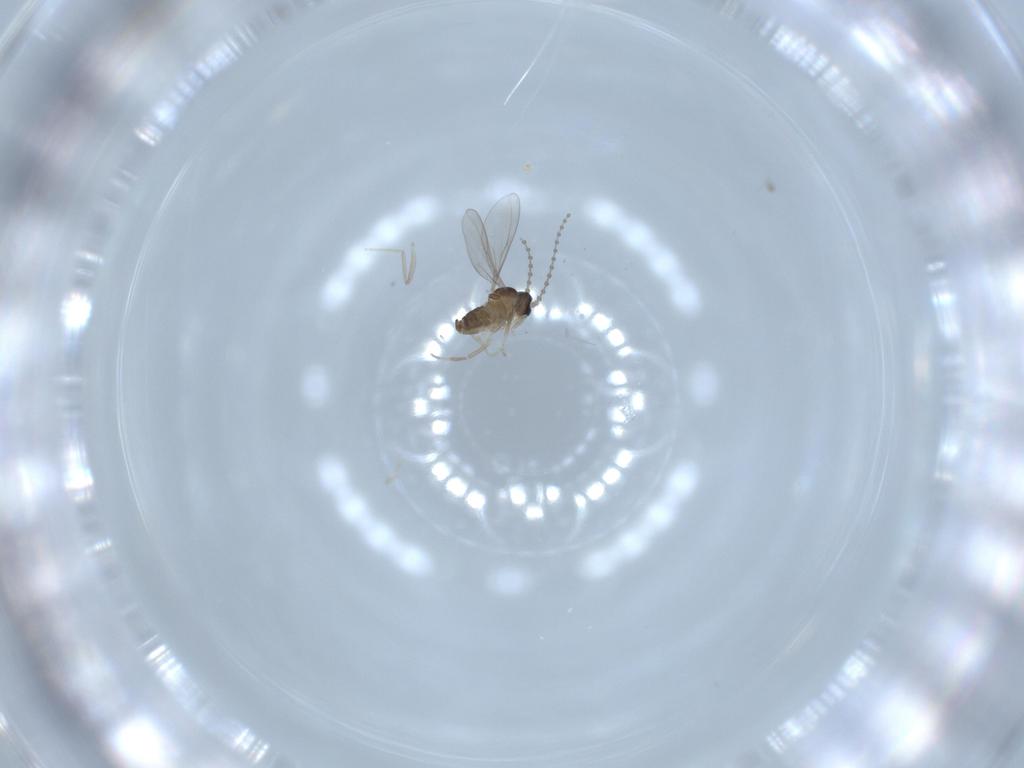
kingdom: Animalia
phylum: Arthropoda
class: Insecta
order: Diptera
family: Cecidomyiidae
